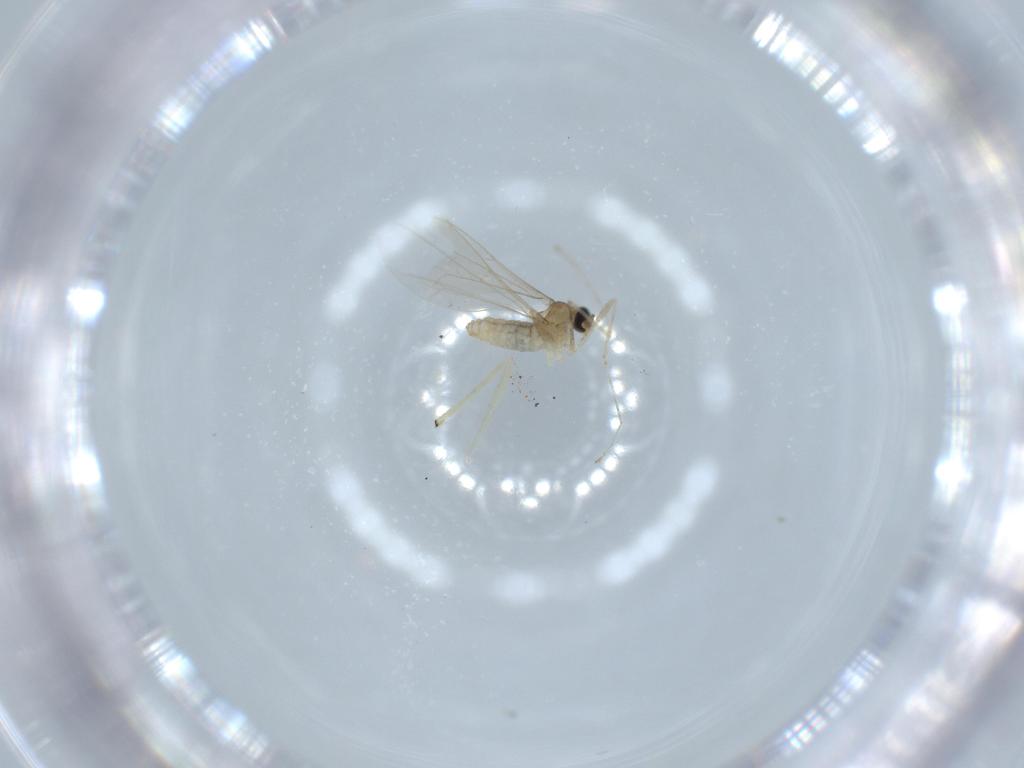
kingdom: Animalia
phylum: Arthropoda
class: Insecta
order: Diptera
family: Cecidomyiidae
